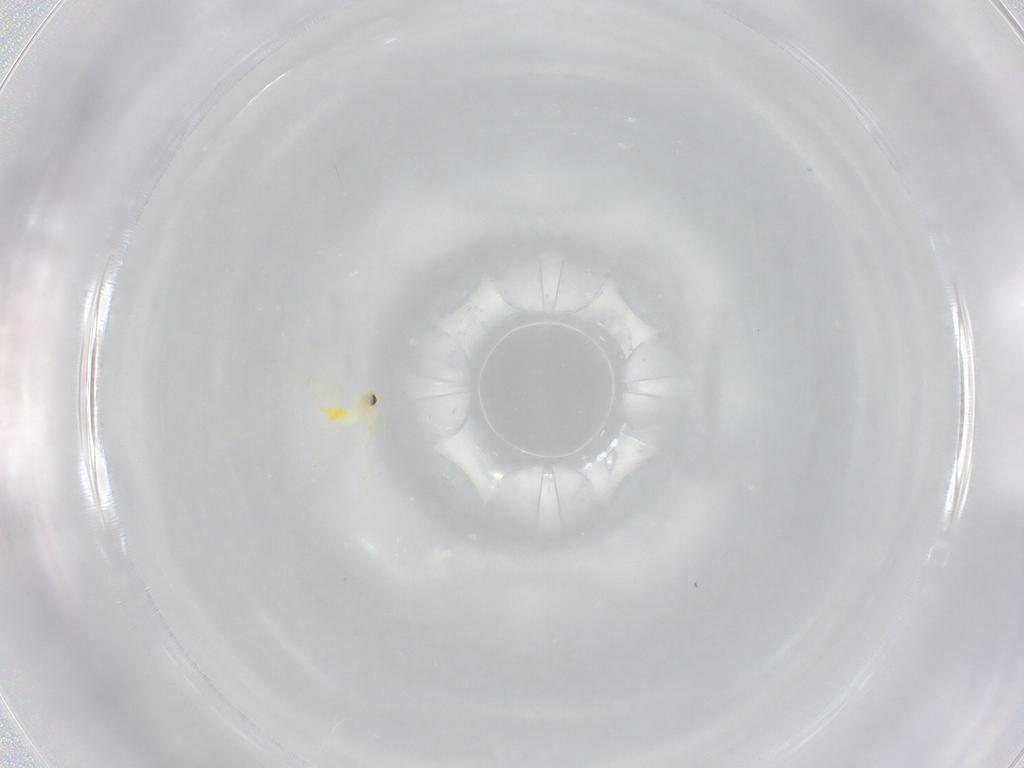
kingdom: Animalia
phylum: Arthropoda
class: Insecta
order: Hemiptera
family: Aleyrodidae
